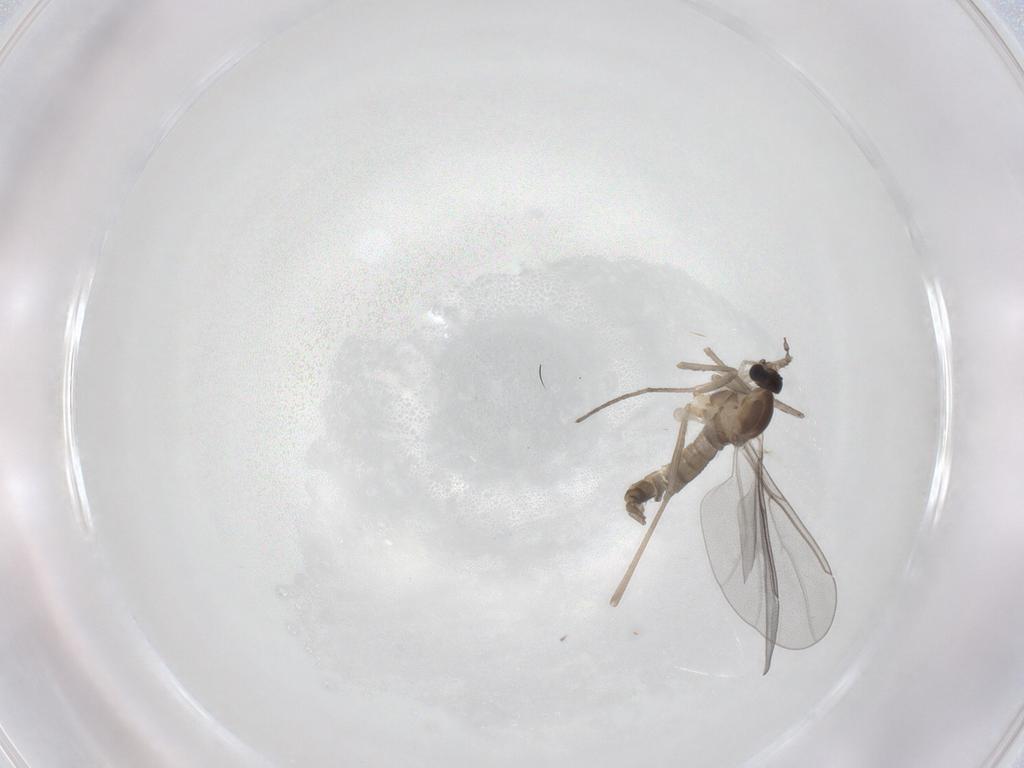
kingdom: Animalia
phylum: Arthropoda
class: Insecta
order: Diptera
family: Cecidomyiidae
